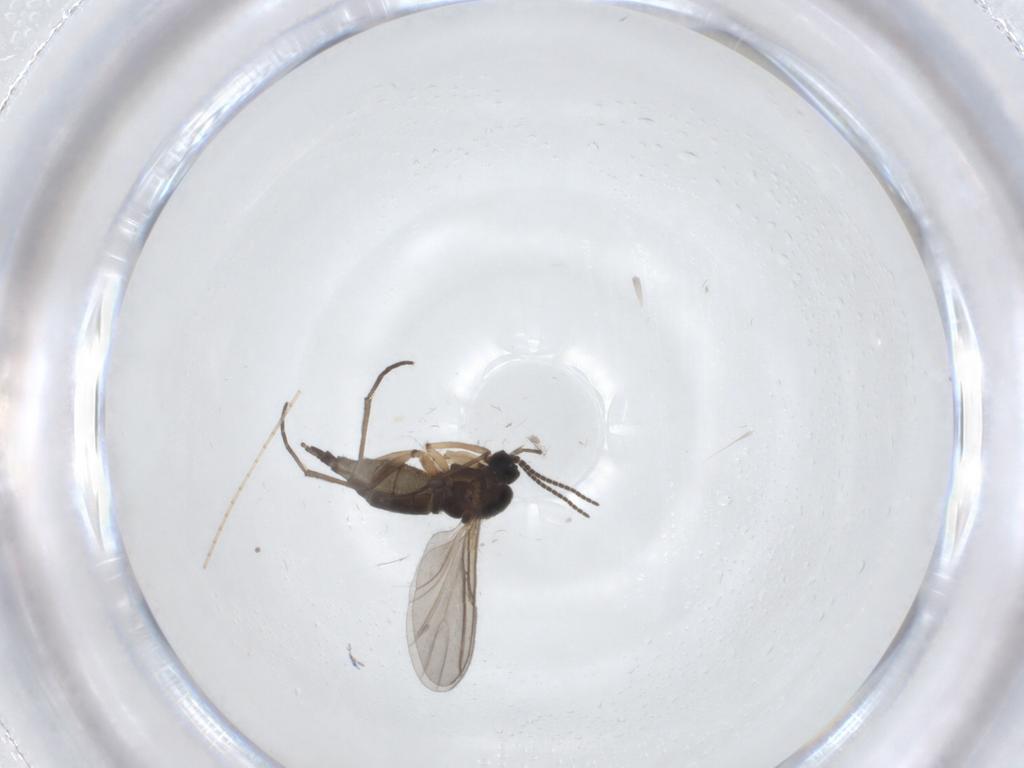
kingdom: Animalia
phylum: Arthropoda
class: Insecta
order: Diptera
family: Sciaridae
